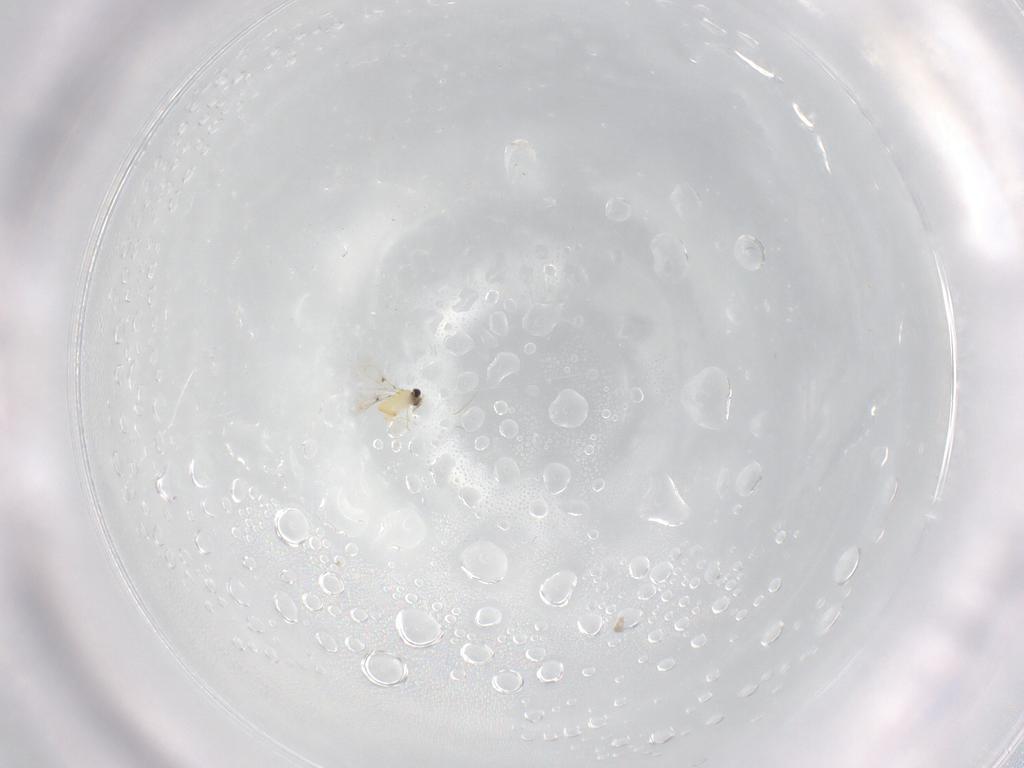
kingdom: Animalia
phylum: Arthropoda
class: Insecta
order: Hymenoptera
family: Trichogrammatidae
